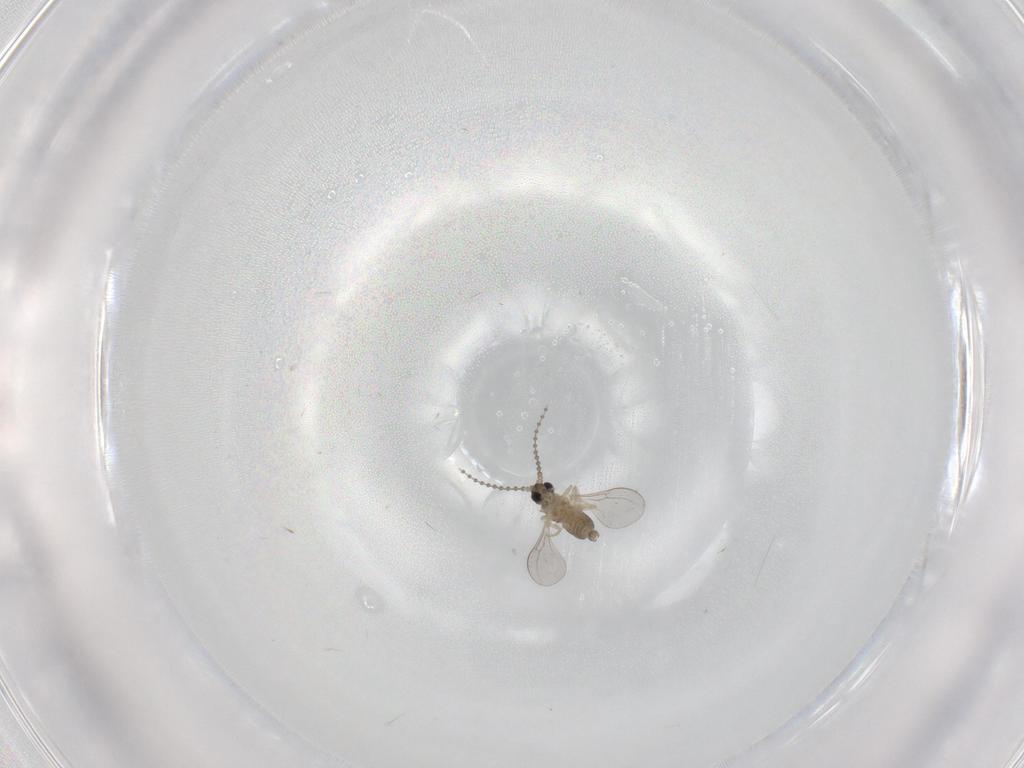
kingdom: Animalia
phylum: Arthropoda
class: Insecta
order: Diptera
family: Cecidomyiidae
